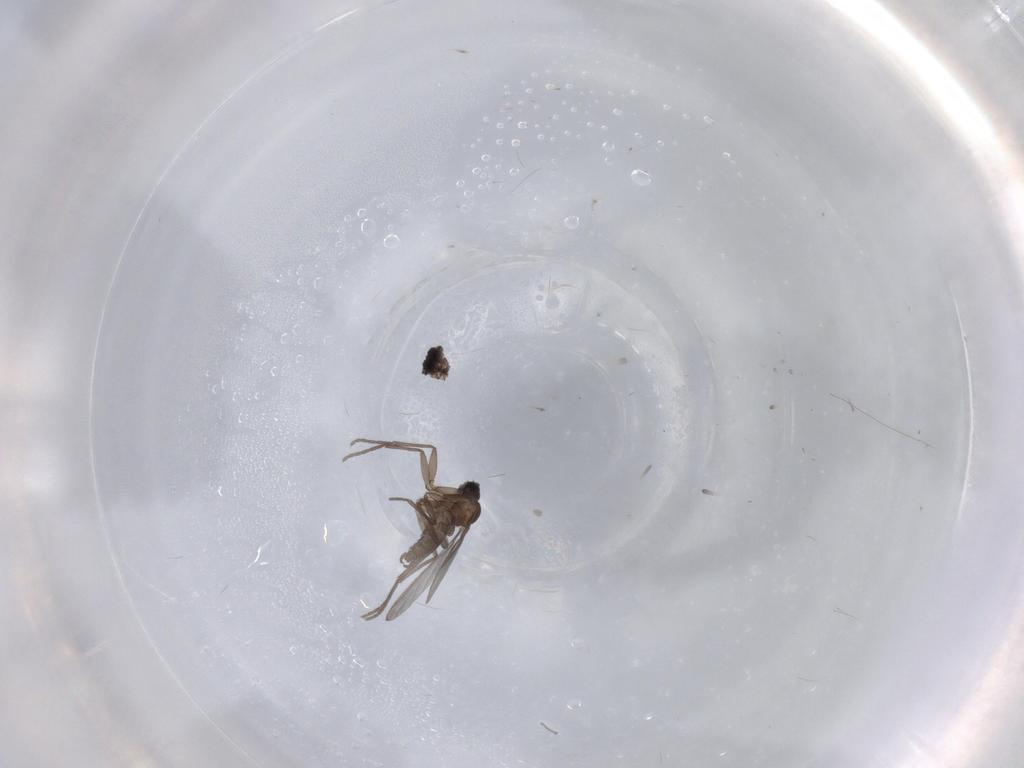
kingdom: Animalia
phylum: Arthropoda
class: Insecta
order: Diptera
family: Sciaridae
